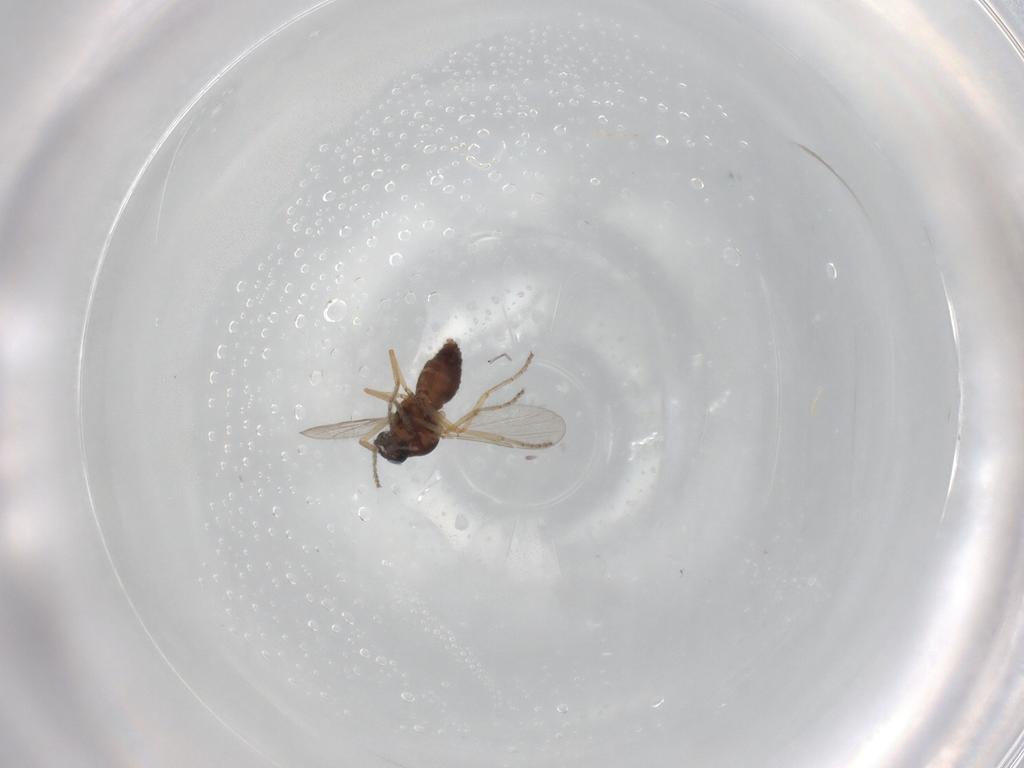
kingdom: Animalia
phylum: Arthropoda
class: Insecta
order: Diptera
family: Ceratopogonidae
